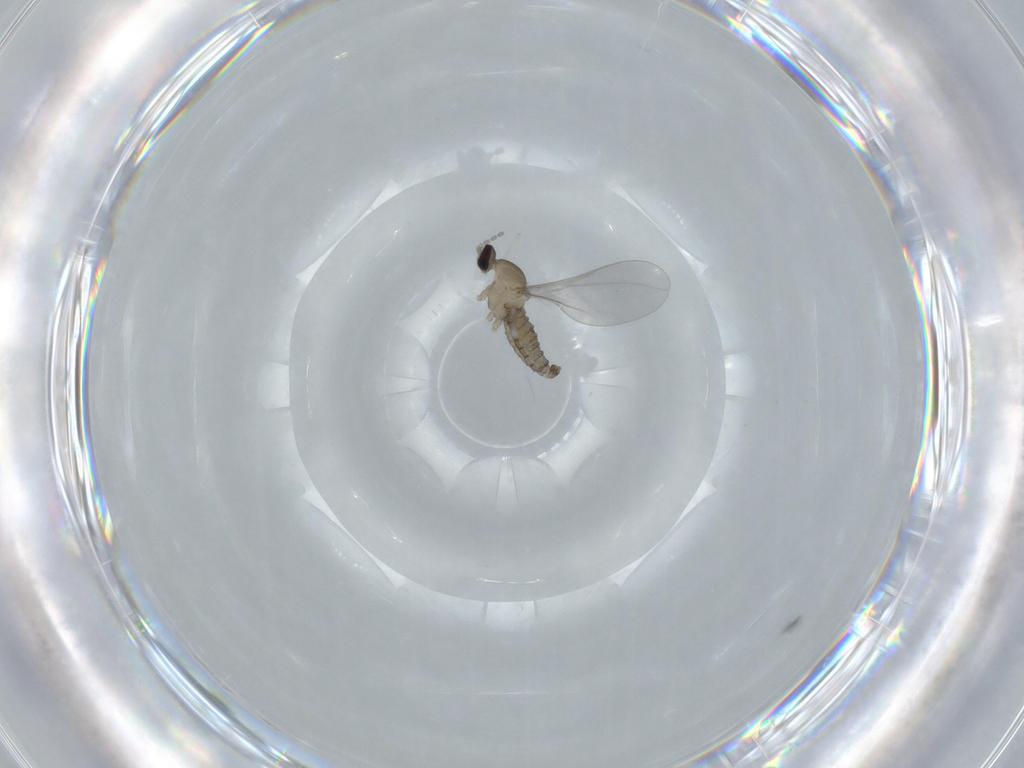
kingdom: Animalia
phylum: Arthropoda
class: Insecta
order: Diptera
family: Cecidomyiidae
